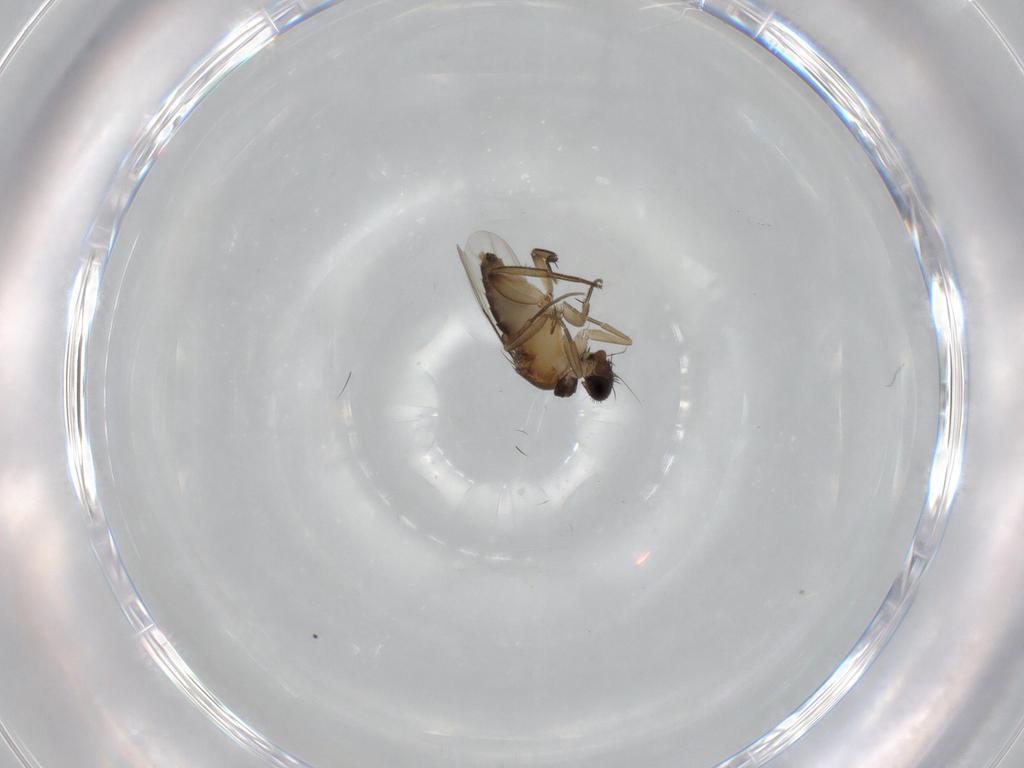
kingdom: Animalia
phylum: Arthropoda
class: Insecta
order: Diptera
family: Phoridae
